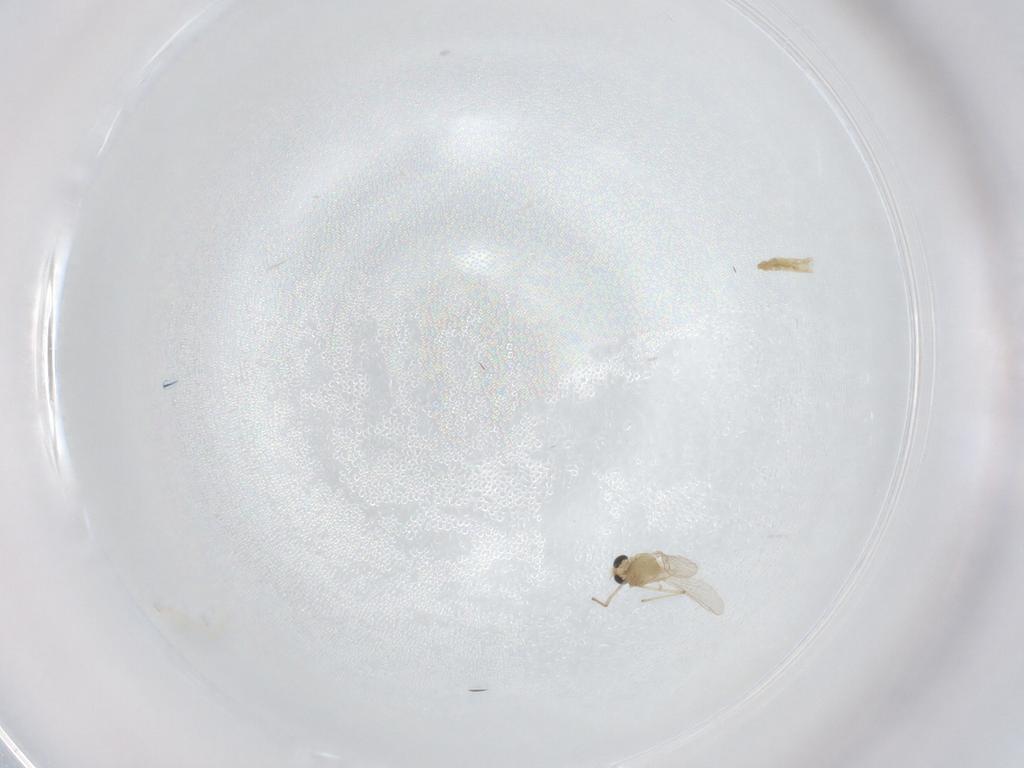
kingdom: Animalia
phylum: Arthropoda
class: Insecta
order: Diptera
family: Chironomidae
